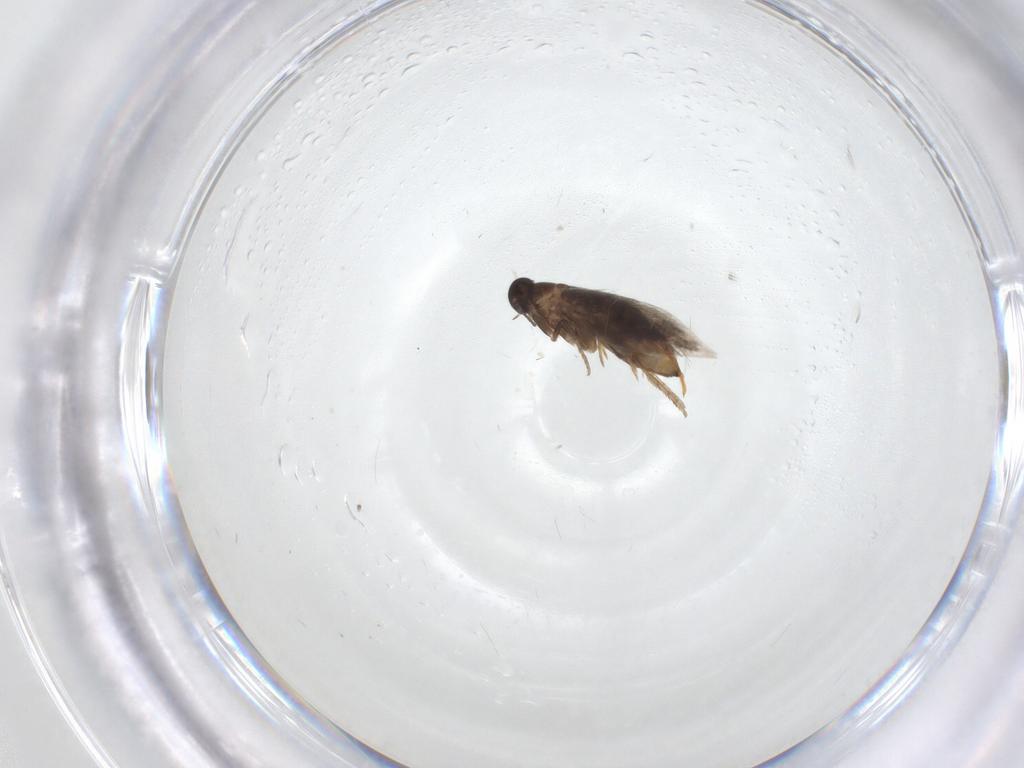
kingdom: Animalia
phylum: Arthropoda
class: Insecta
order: Lepidoptera
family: Heliozelidae
